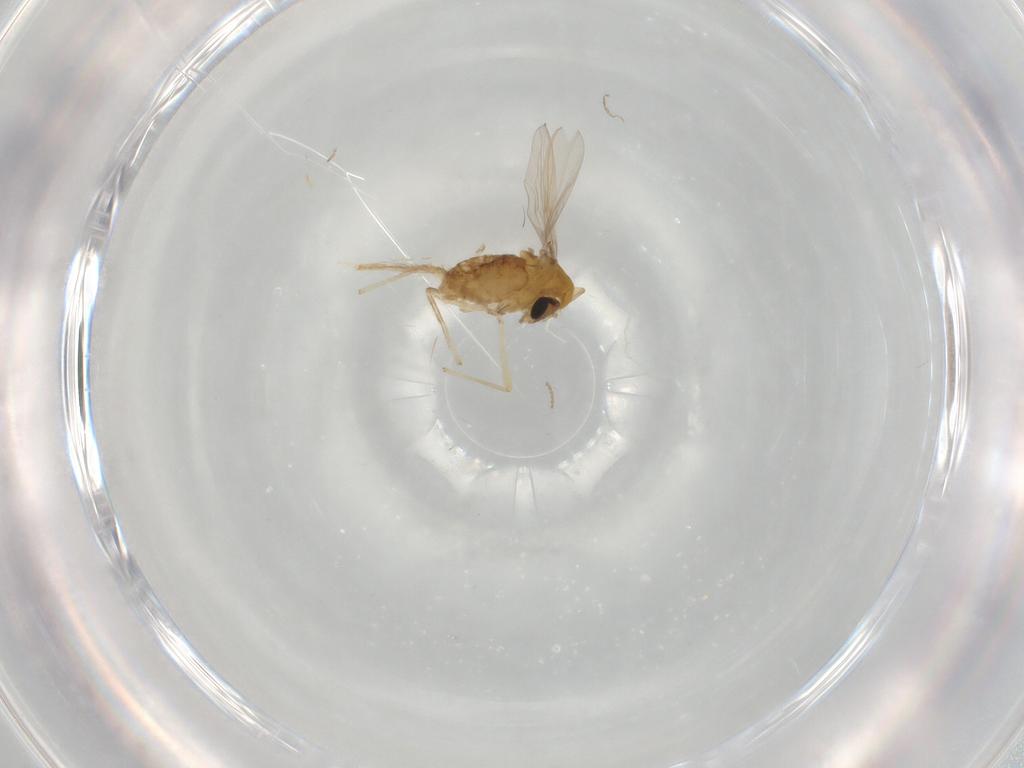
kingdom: Animalia
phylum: Arthropoda
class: Insecta
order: Diptera
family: Chironomidae
